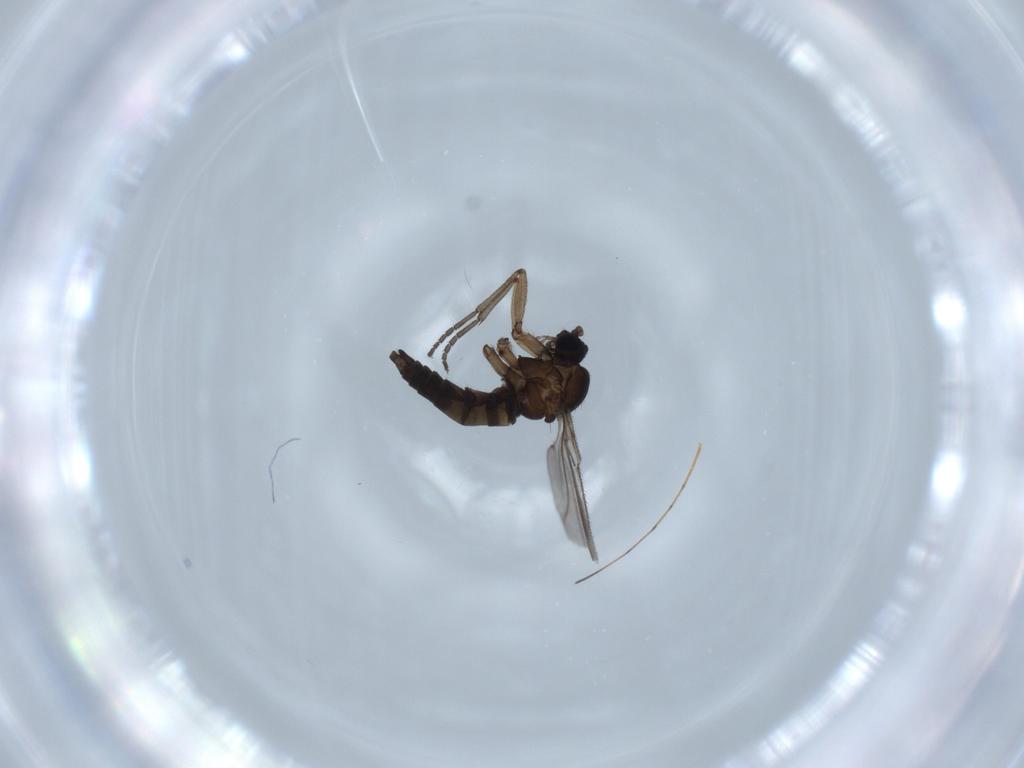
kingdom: Animalia
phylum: Arthropoda
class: Insecta
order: Diptera
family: Sciaridae
